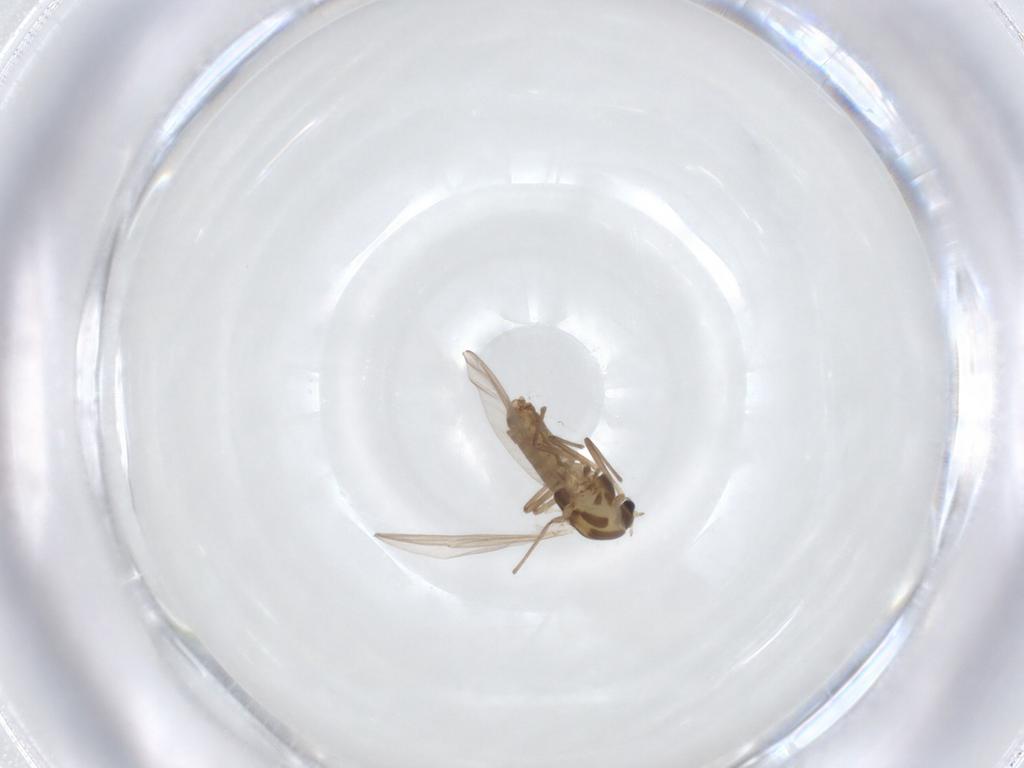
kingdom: Animalia
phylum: Arthropoda
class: Insecta
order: Diptera
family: Chironomidae
